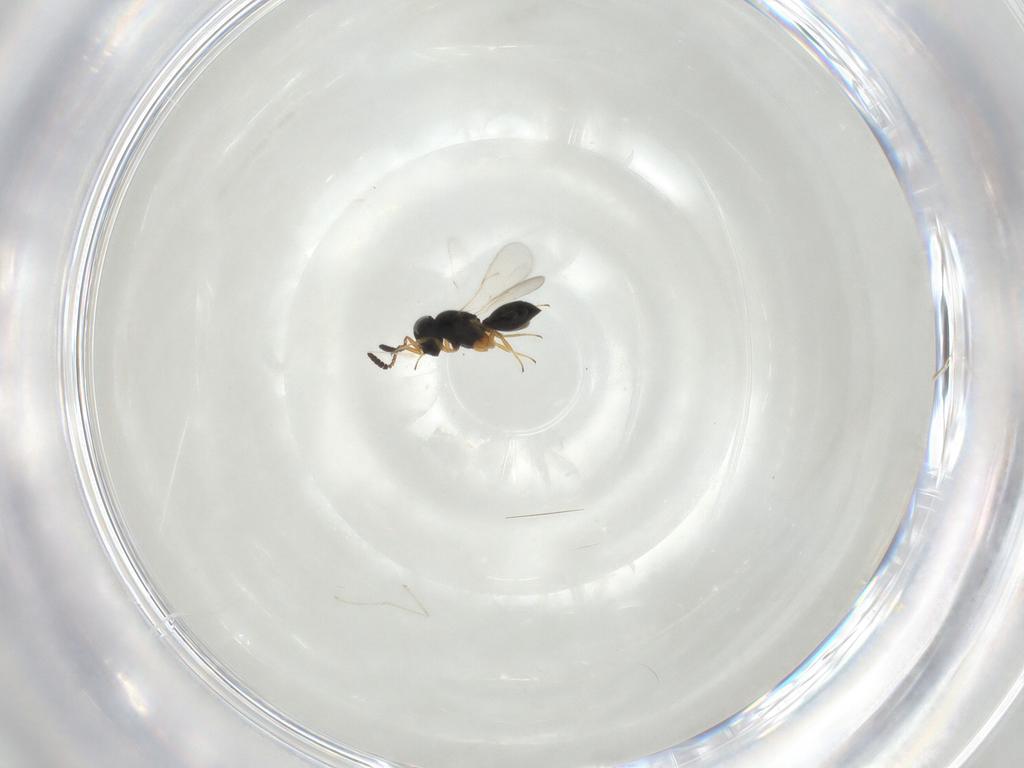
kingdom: Animalia
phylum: Arthropoda
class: Insecta
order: Hymenoptera
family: Scelionidae
